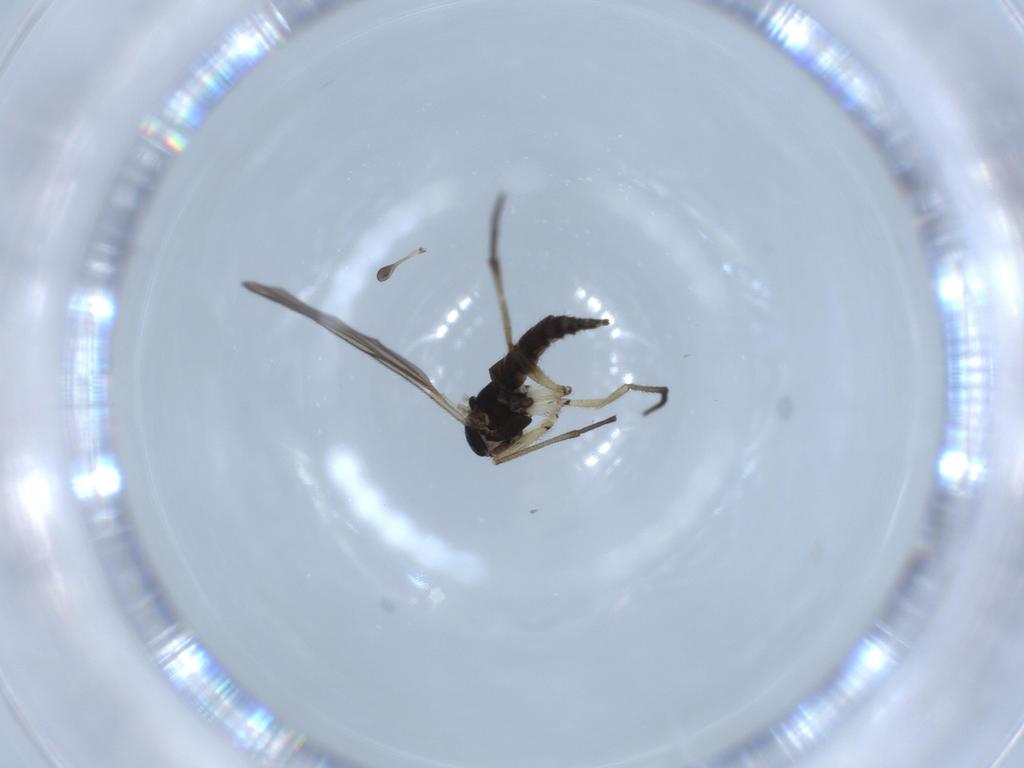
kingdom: Animalia
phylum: Arthropoda
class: Insecta
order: Diptera
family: Sciaridae
